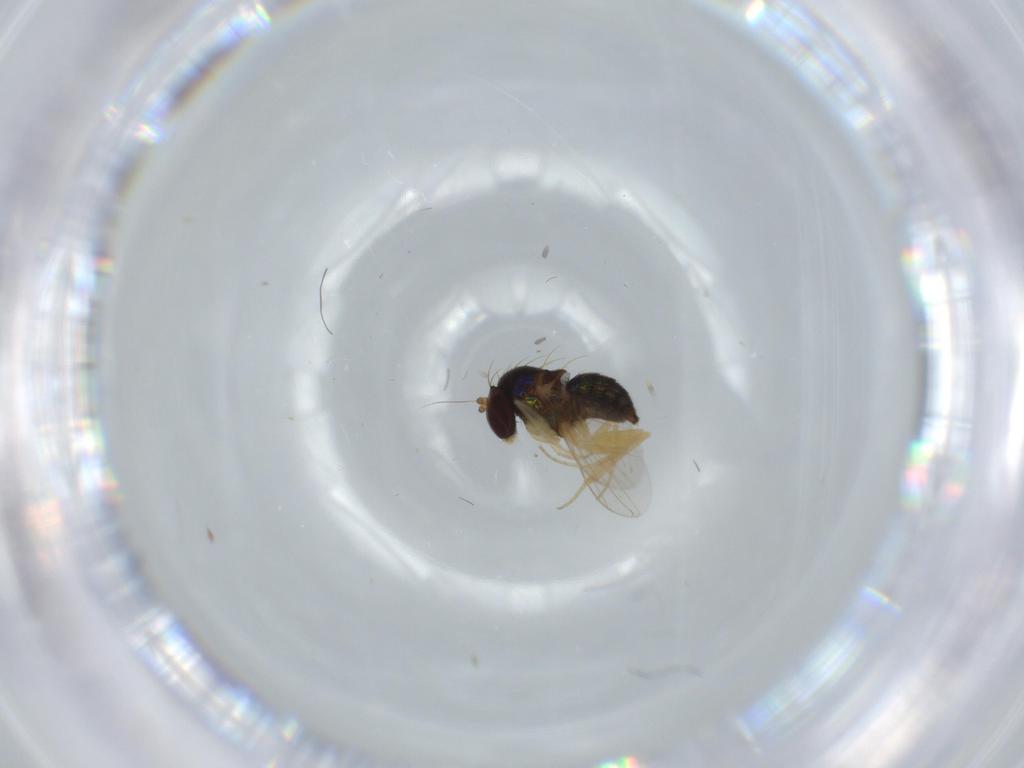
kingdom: Animalia
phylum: Arthropoda
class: Insecta
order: Diptera
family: Dolichopodidae
